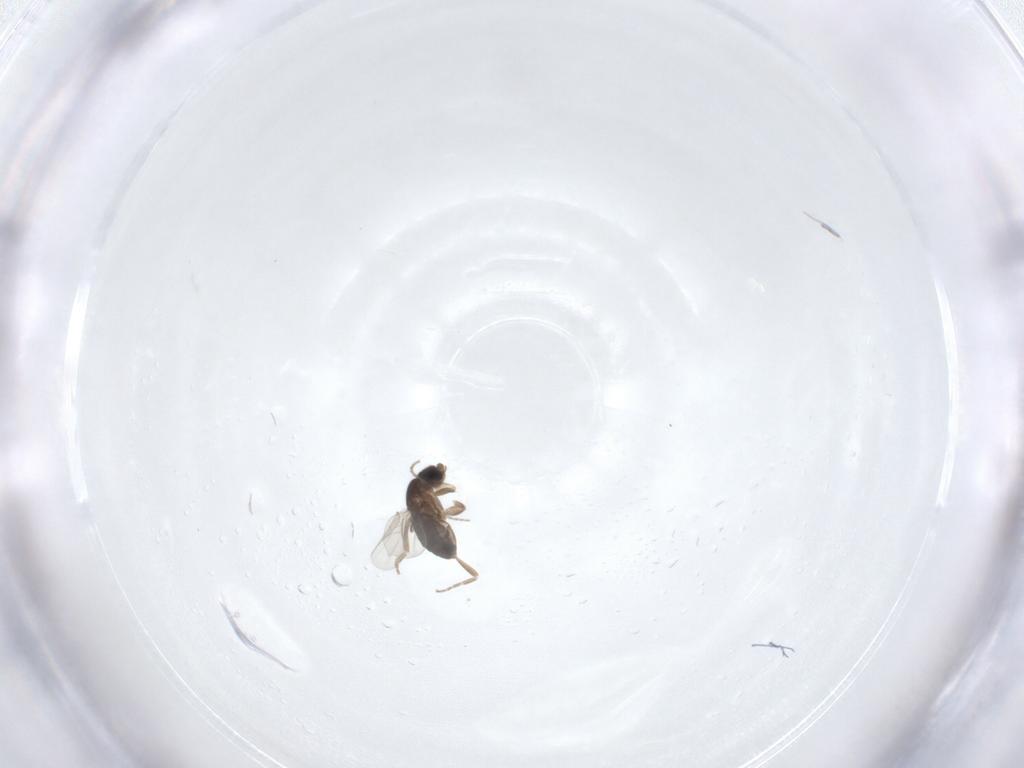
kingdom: Animalia
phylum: Arthropoda
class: Insecta
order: Diptera
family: Phoridae
